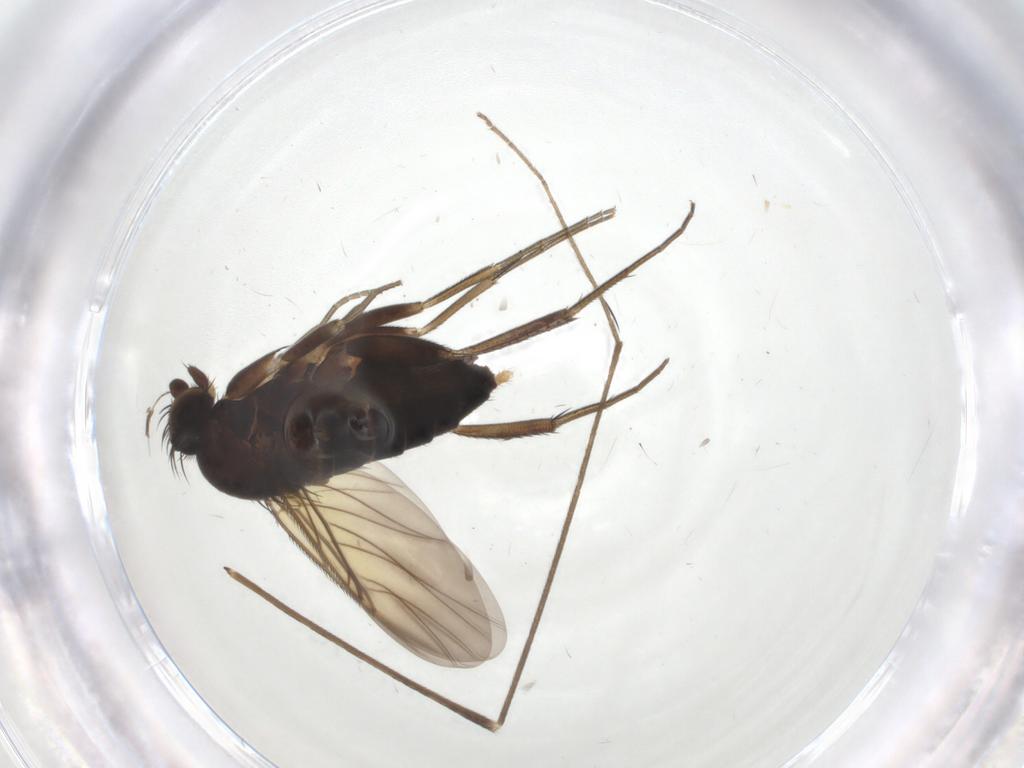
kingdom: Animalia
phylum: Arthropoda
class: Insecta
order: Diptera
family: Phoridae
